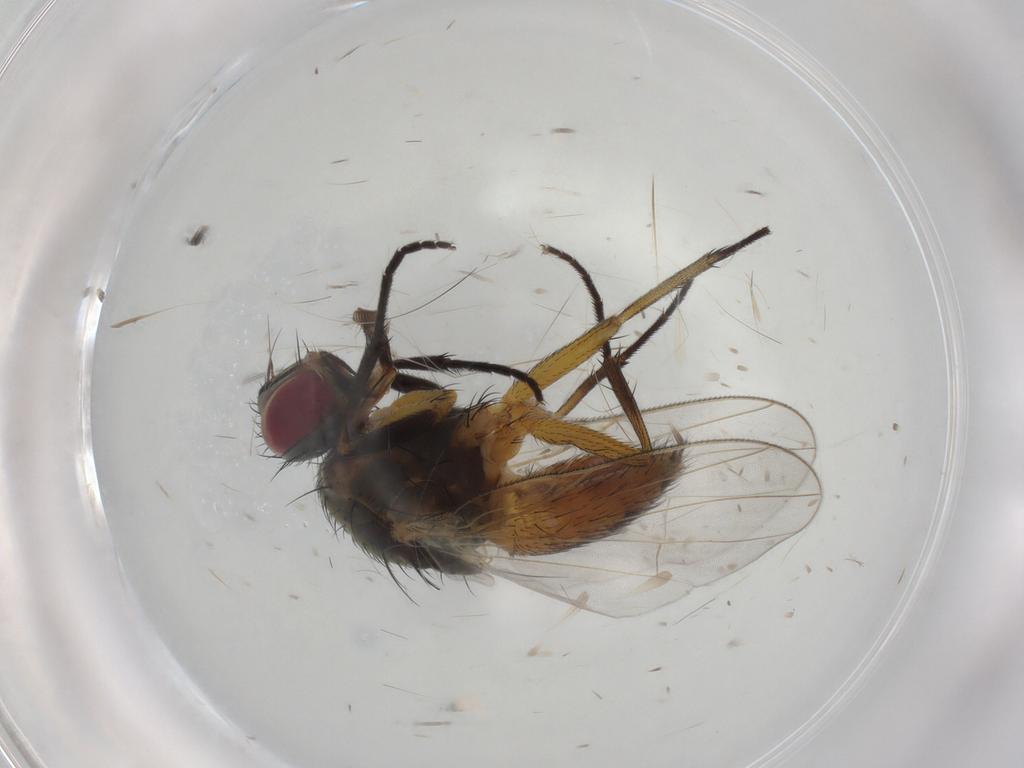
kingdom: Animalia
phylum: Arthropoda
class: Insecta
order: Diptera
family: Muscidae
